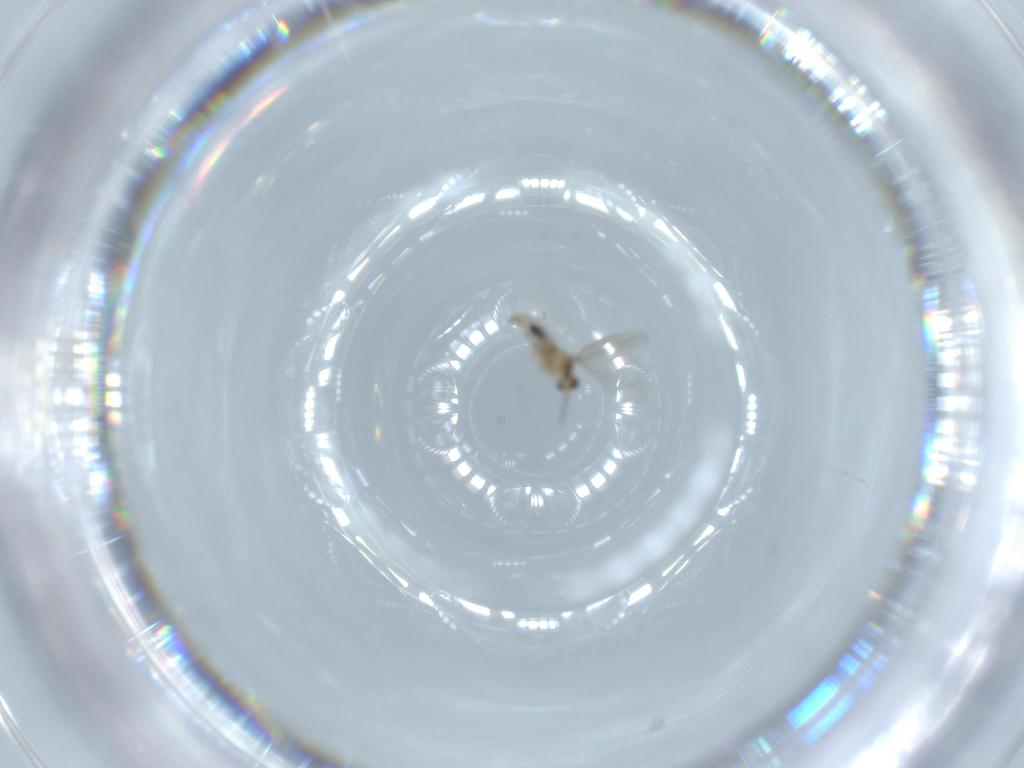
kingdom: Animalia
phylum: Arthropoda
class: Insecta
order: Diptera
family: Cecidomyiidae
